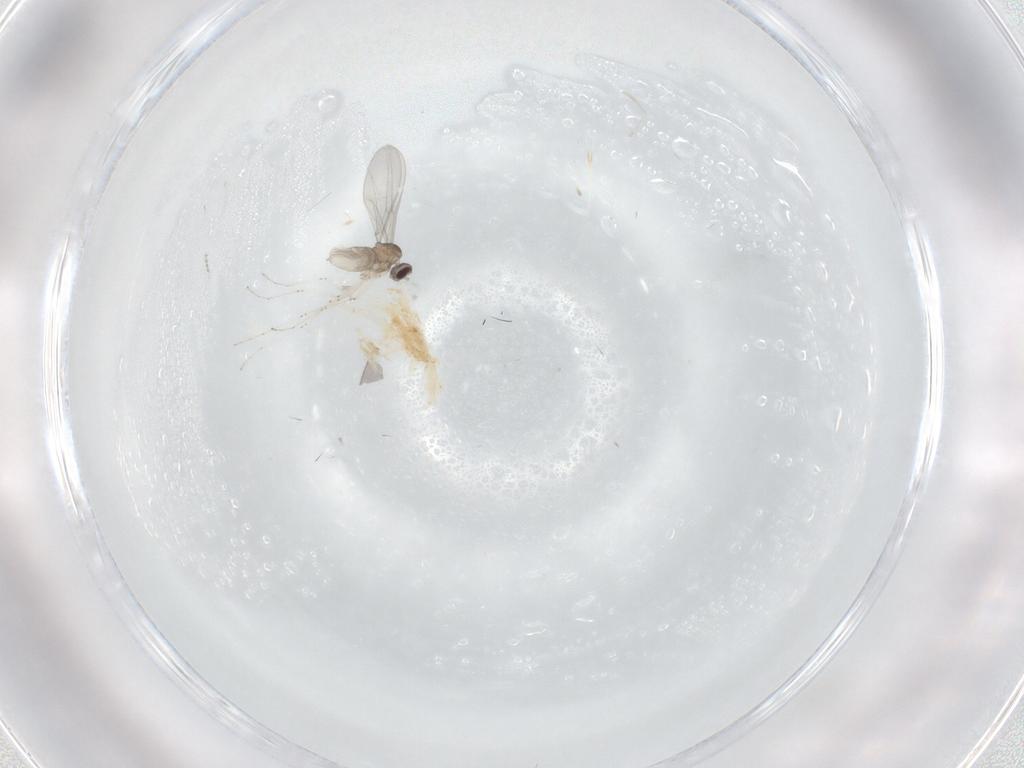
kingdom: Animalia
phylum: Arthropoda
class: Insecta
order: Diptera
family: Cecidomyiidae
